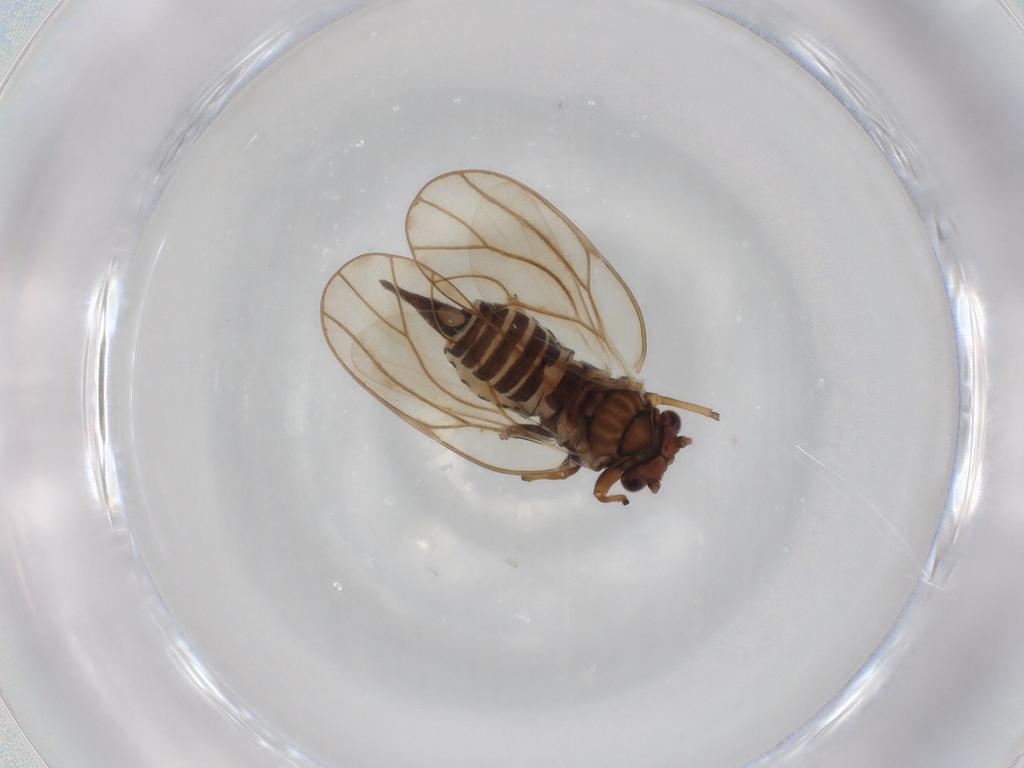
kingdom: Animalia
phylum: Arthropoda
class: Insecta
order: Hemiptera
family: Psyllidae
